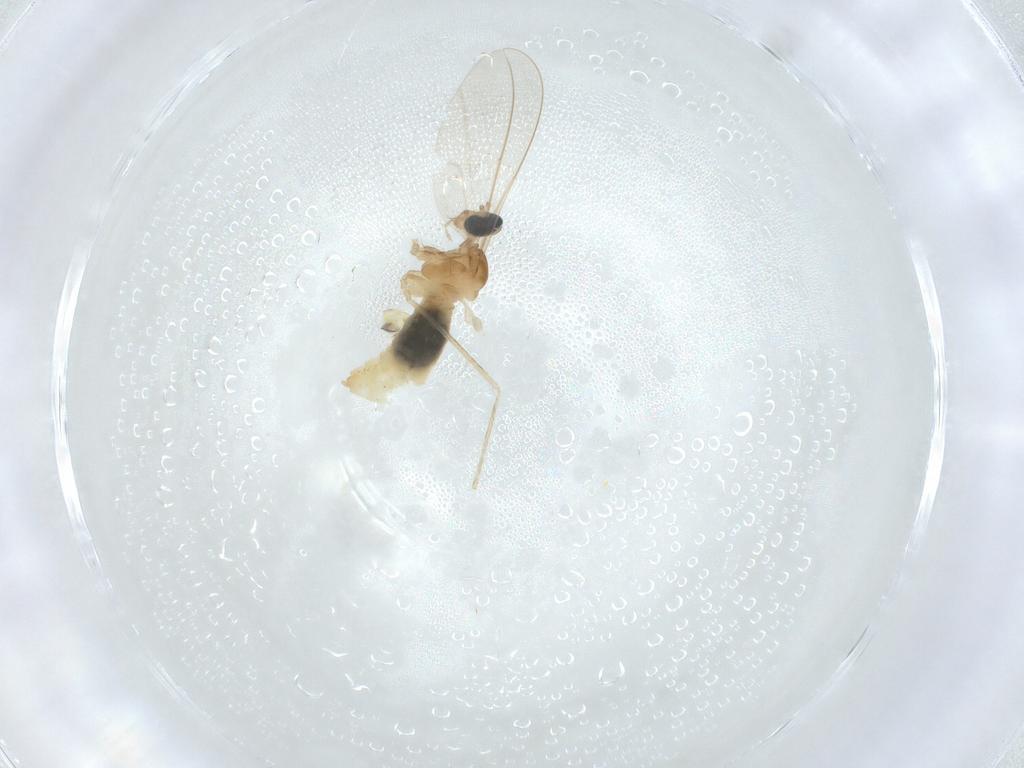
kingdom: Animalia
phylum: Arthropoda
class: Insecta
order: Diptera
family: Cecidomyiidae
